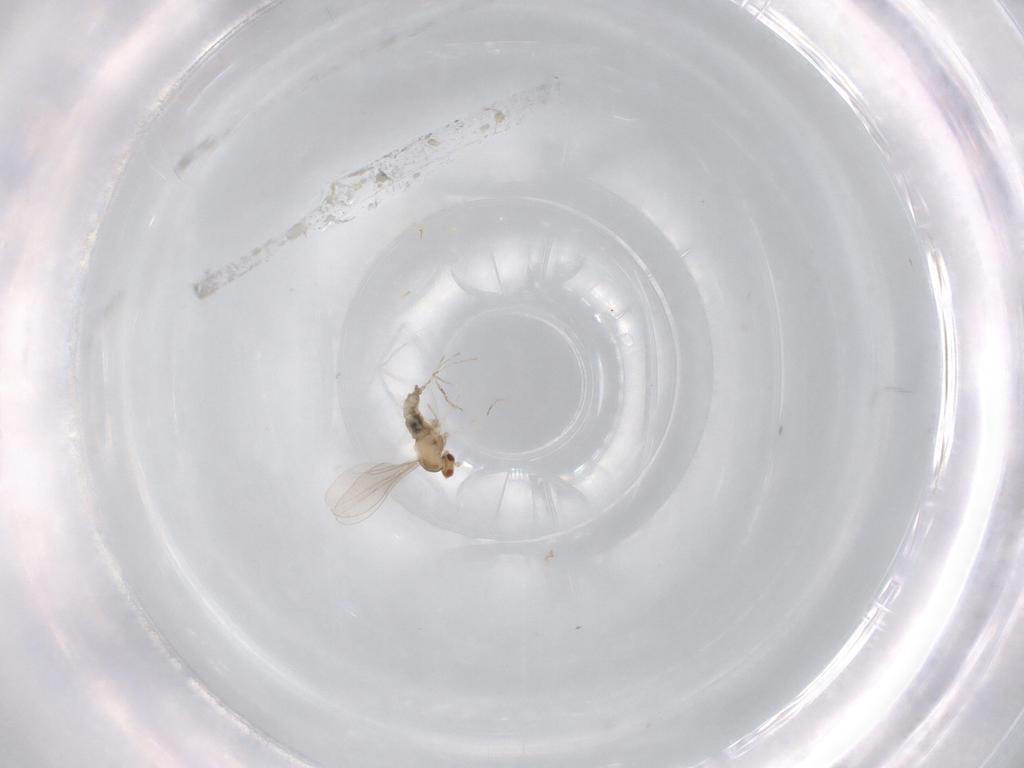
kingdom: Animalia
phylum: Arthropoda
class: Insecta
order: Diptera
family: Cecidomyiidae
